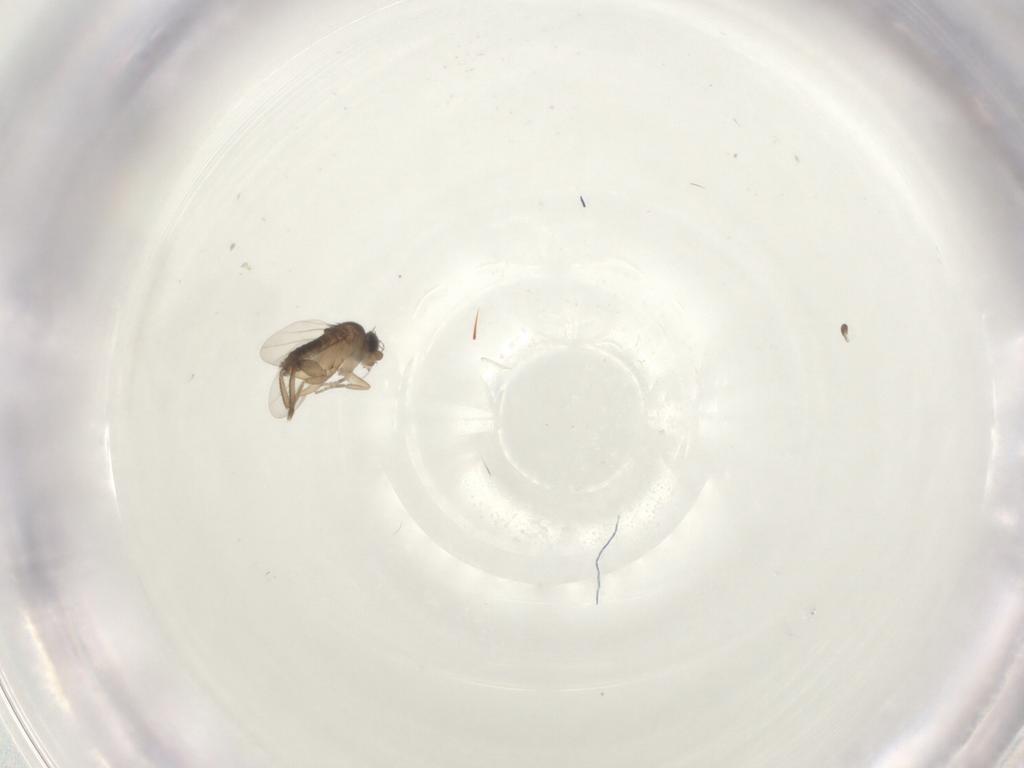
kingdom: Animalia
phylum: Arthropoda
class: Insecta
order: Diptera
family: Phoridae
